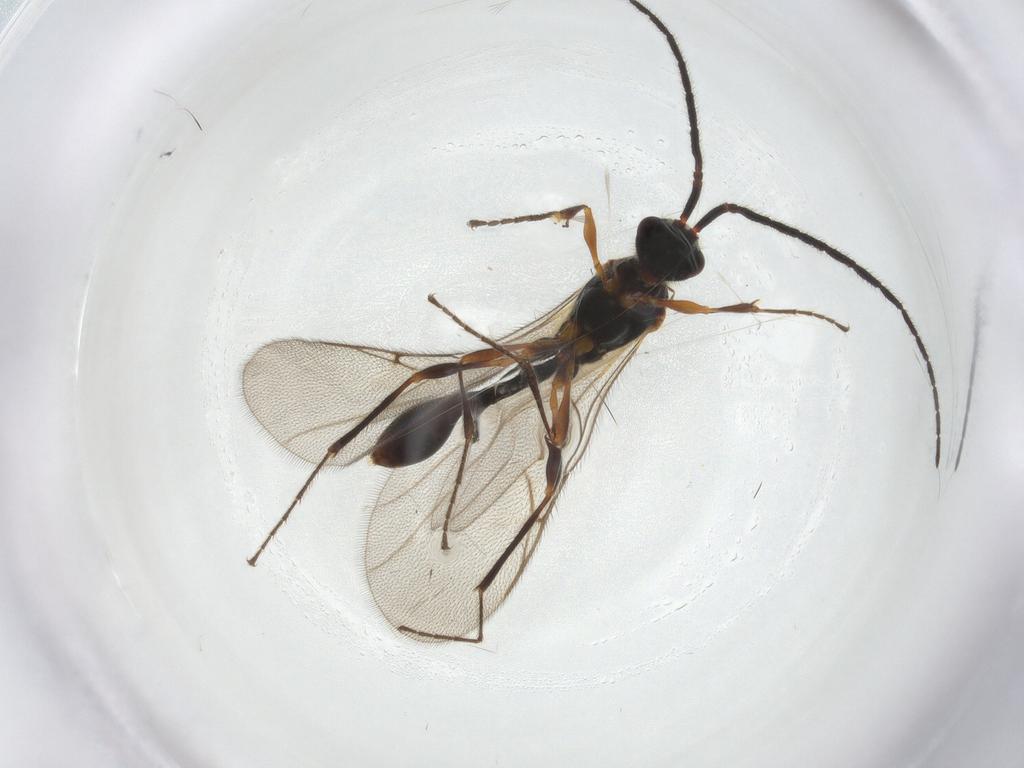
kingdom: Animalia
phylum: Arthropoda
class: Insecta
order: Hymenoptera
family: Diapriidae
